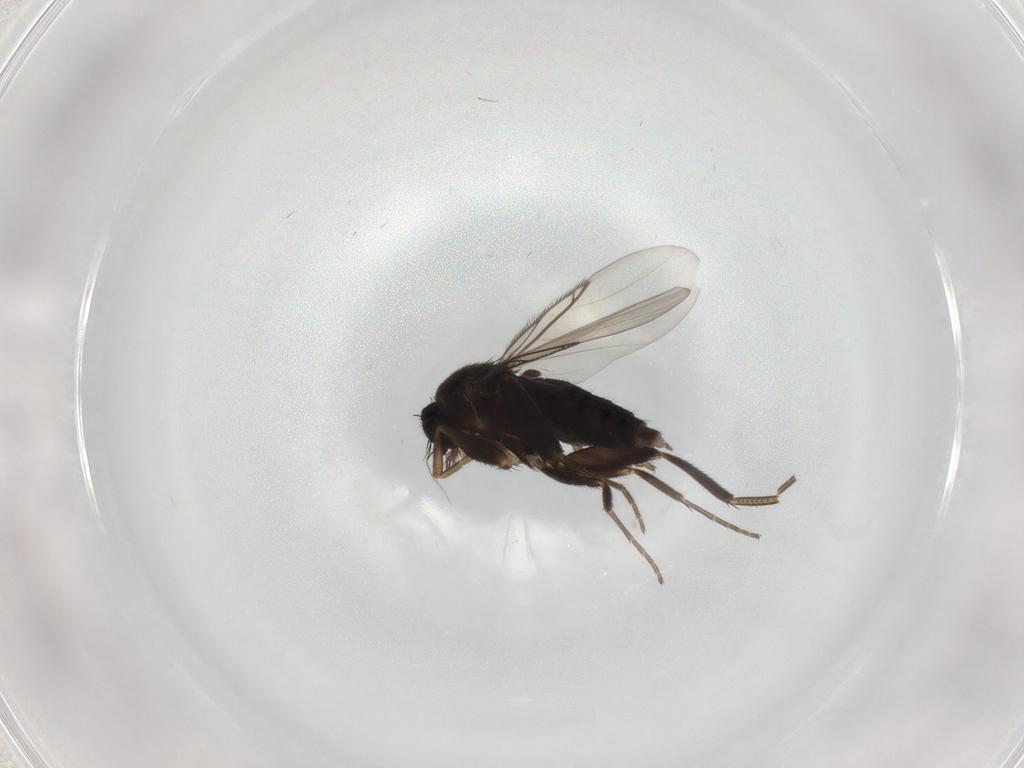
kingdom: Animalia
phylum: Arthropoda
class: Insecta
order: Diptera
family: Phoridae
